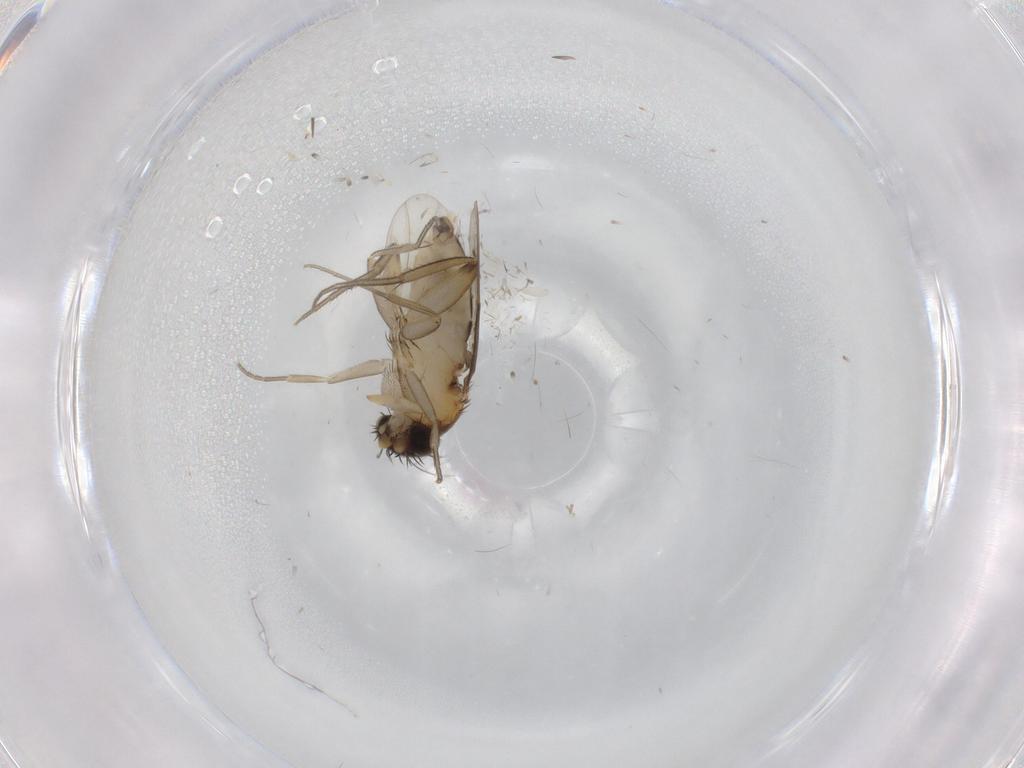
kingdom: Animalia
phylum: Arthropoda
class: Insecta
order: Diptera
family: Phoridae
